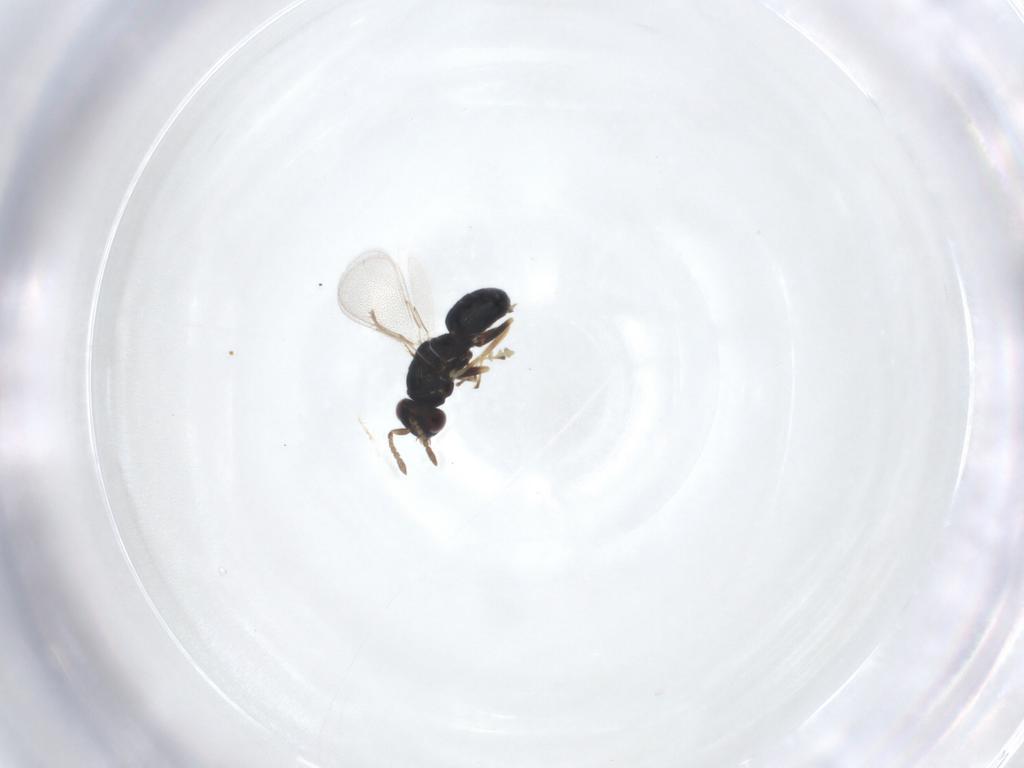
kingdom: Animalia
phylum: Arthropoda
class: Insecta
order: Hymenoptera
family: Eulophidae
